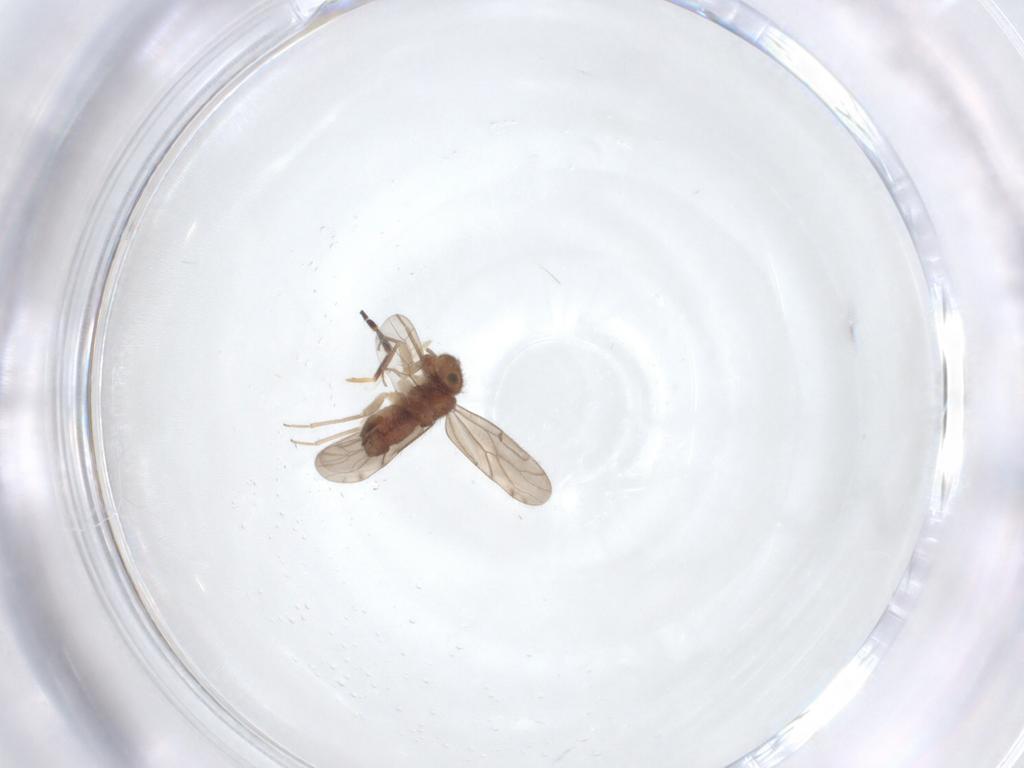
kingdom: Animalia
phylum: Arthropoda
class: Insecta
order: Psocodea
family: Ectopsocidae
